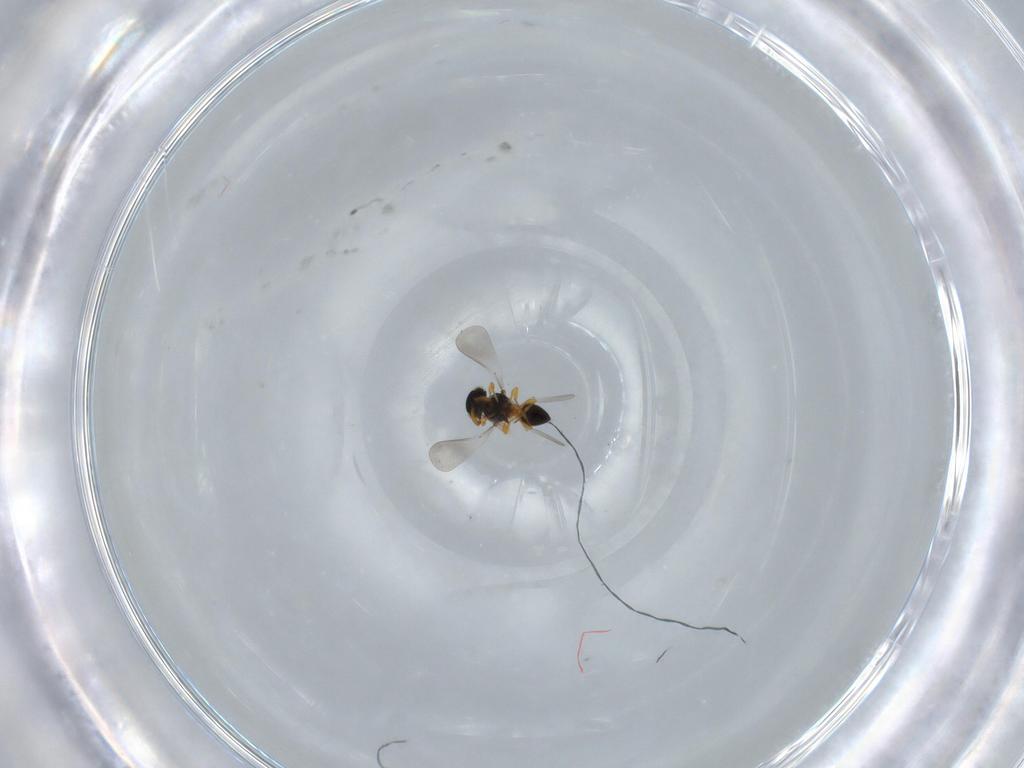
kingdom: Animalia
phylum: Arthropoda
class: Insecta
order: Hymenoptera
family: Platygastridae
